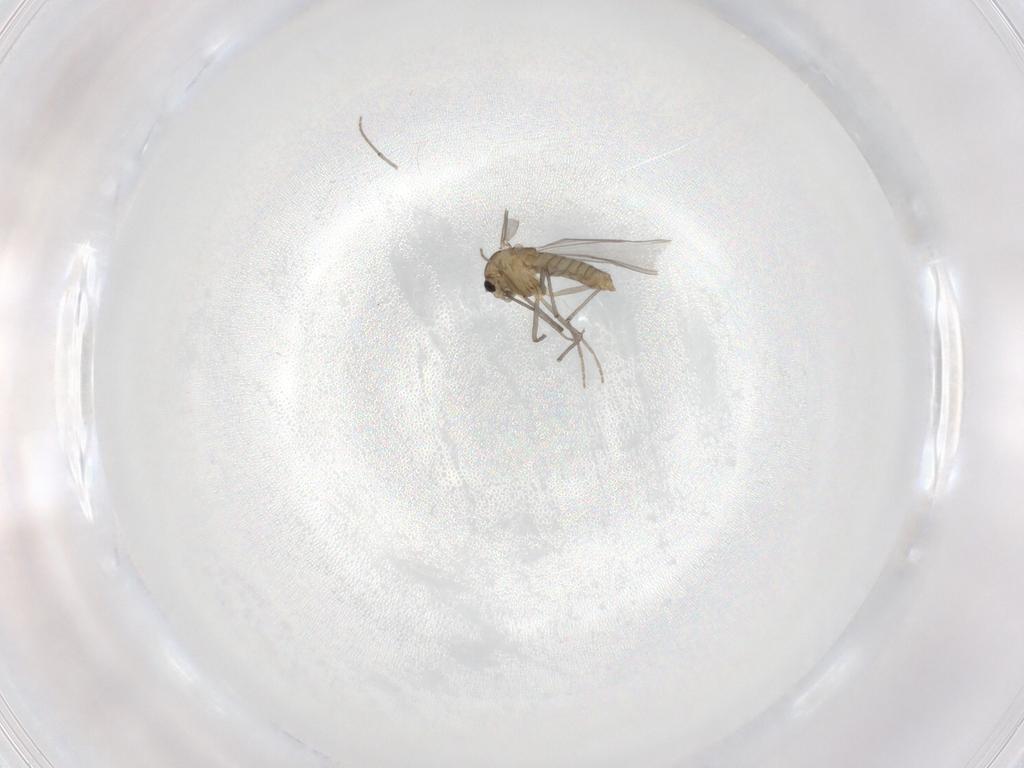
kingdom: Animalia
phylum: Arthropoda
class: Insecta
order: Diptera
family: Chironomidae
